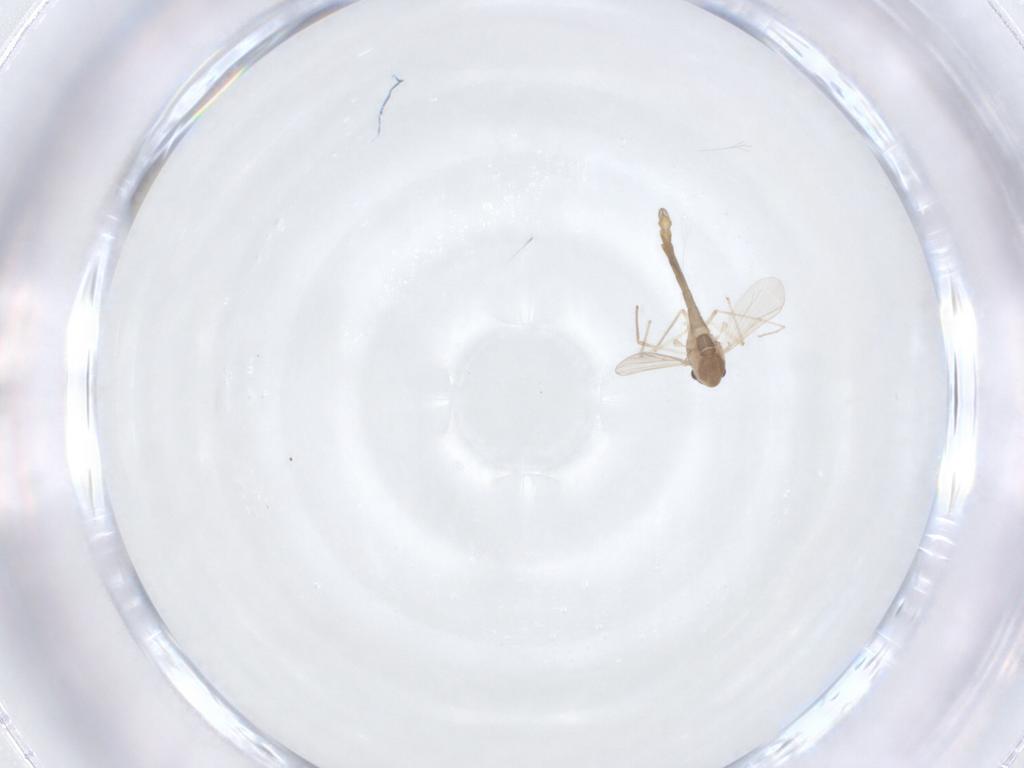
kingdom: Animalia
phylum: Arthropoda
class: Insecta
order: Diptera
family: Chironomidae
